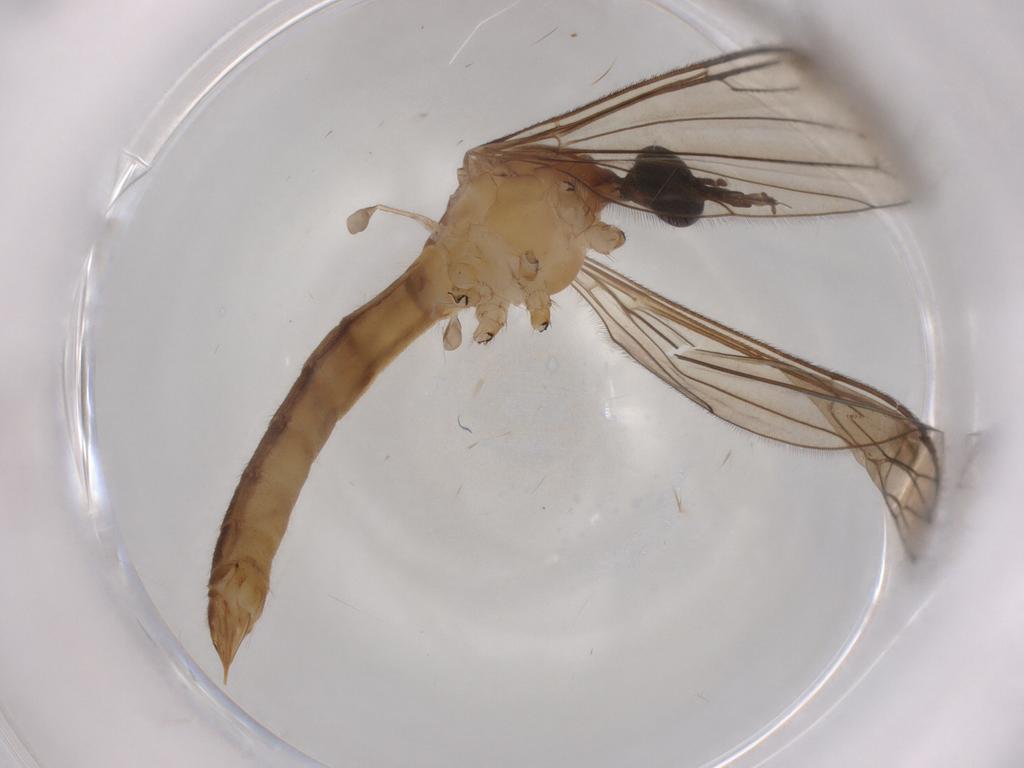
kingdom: Animalia
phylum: Arthropoda
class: Insecta
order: Diptera
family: Limoniidae
